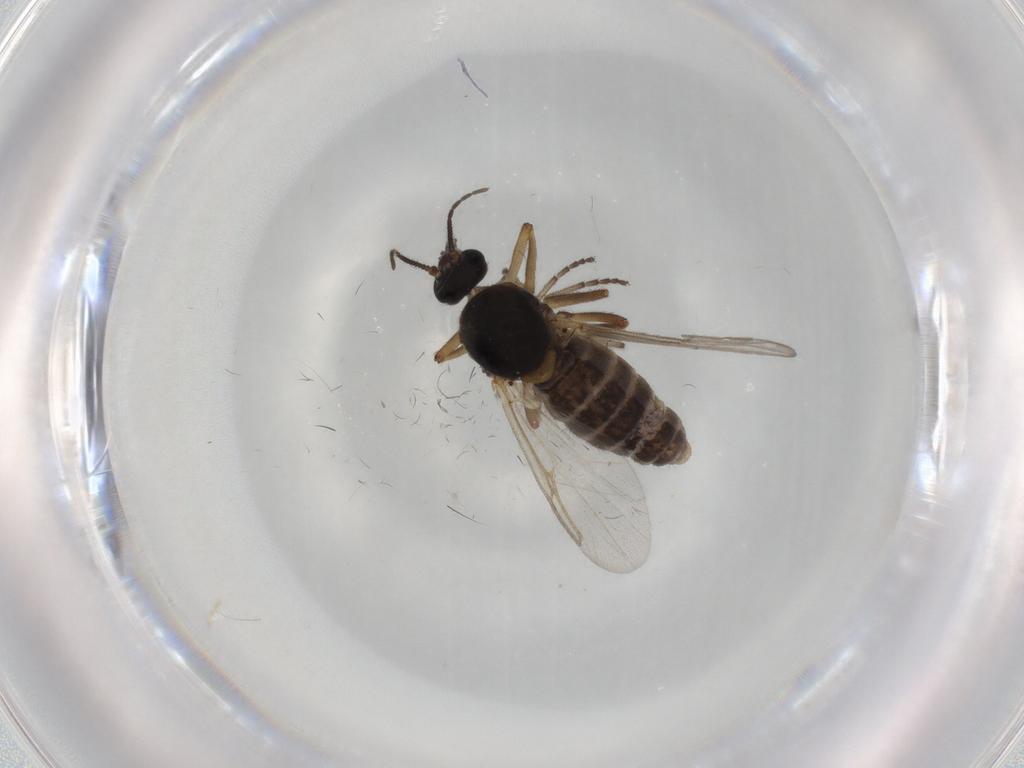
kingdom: Animalia
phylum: Arthropoda
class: Insecta
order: Diptera
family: Ceratopogonidae
